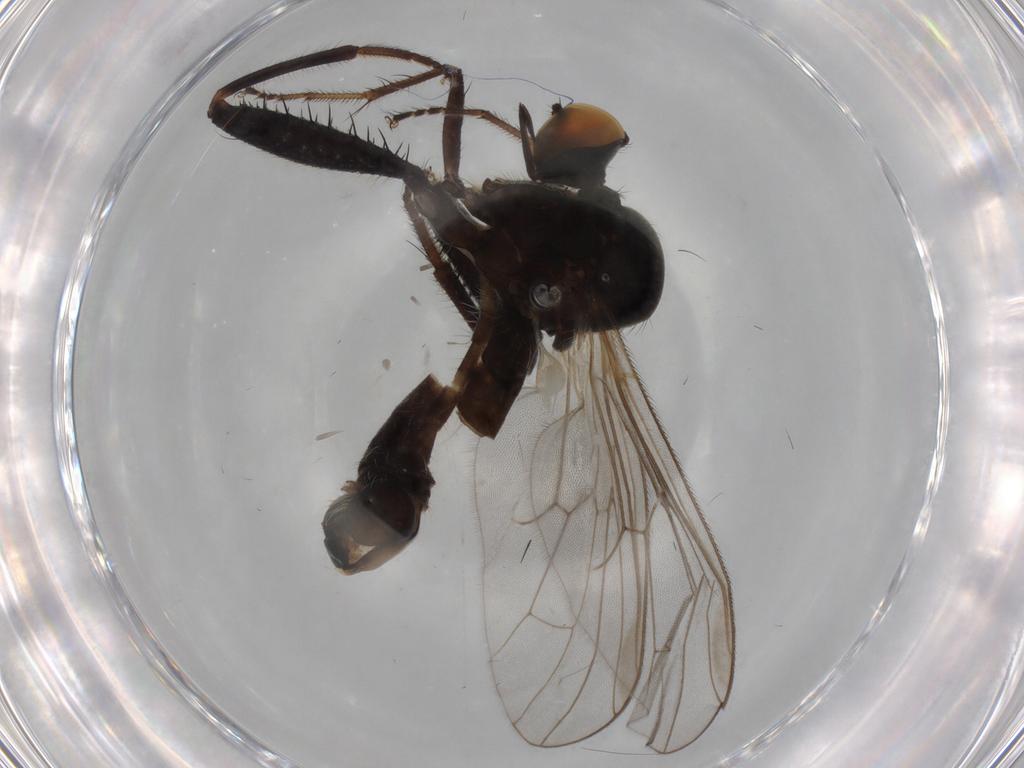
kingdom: Animalia
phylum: Arthropoda
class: Insecta
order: Diptera
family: Hybotidae
